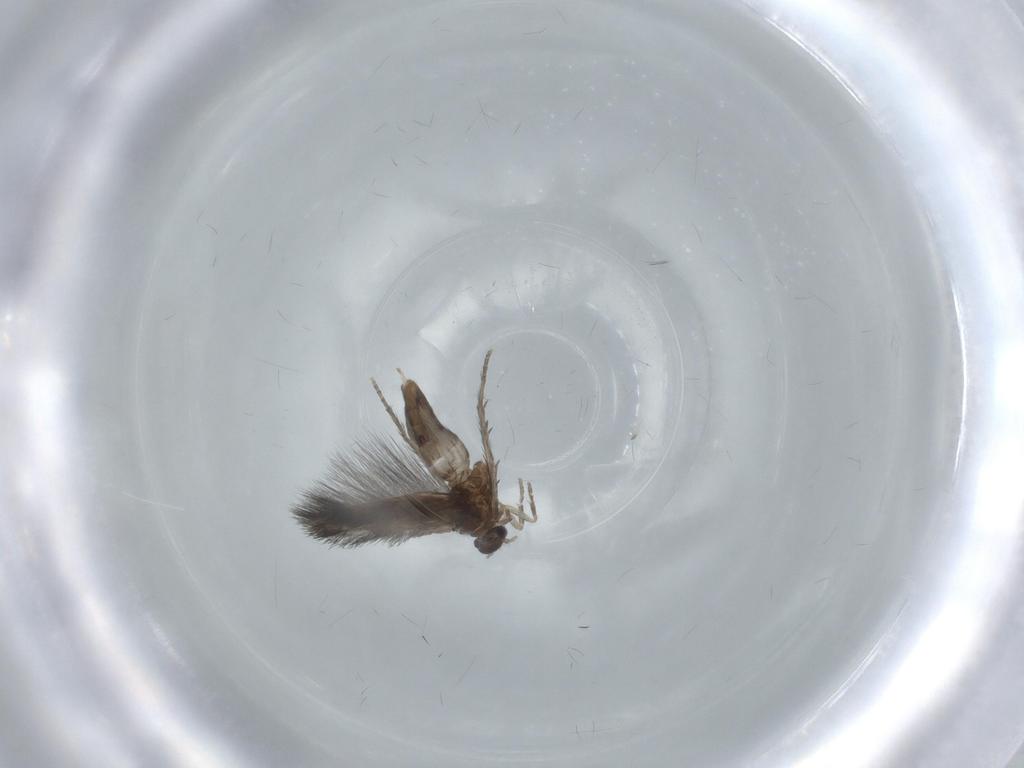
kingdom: Animalia
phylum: Arthropoda
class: Insecta
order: Trichoptera
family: Hydroptilidae
